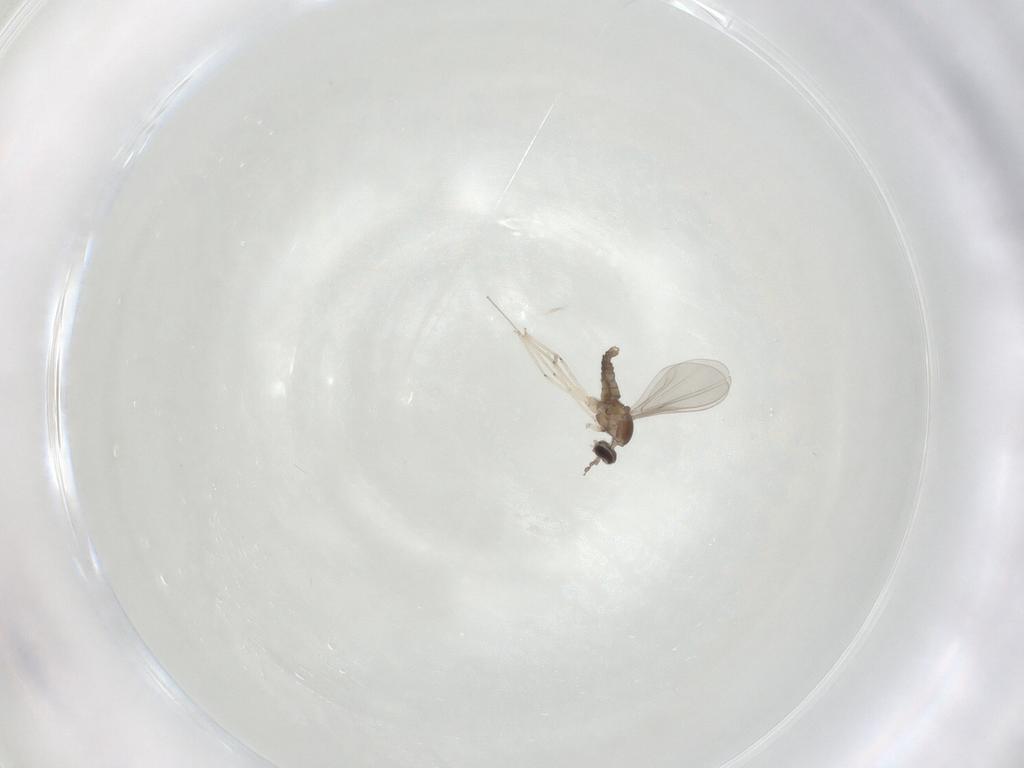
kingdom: Animalia
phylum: Arthropoda
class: Insecta
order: Diptera
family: Cecidomyiidae
